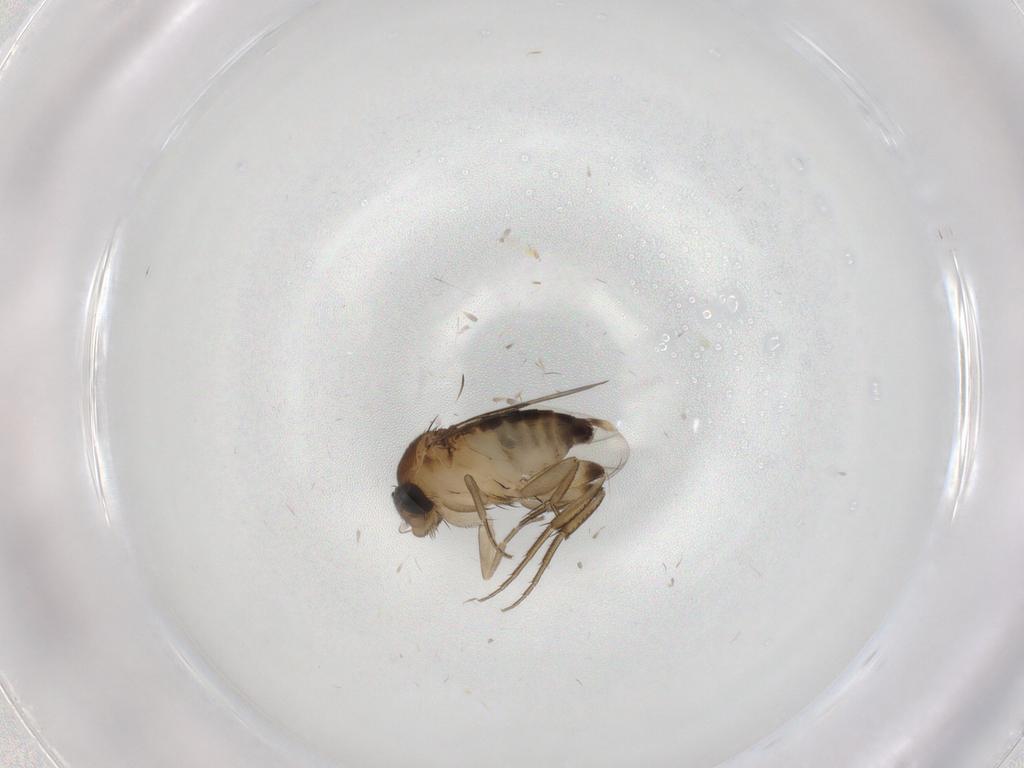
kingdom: Animalia
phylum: Arthropoda
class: Insecta
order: Diptera
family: Phoridae
